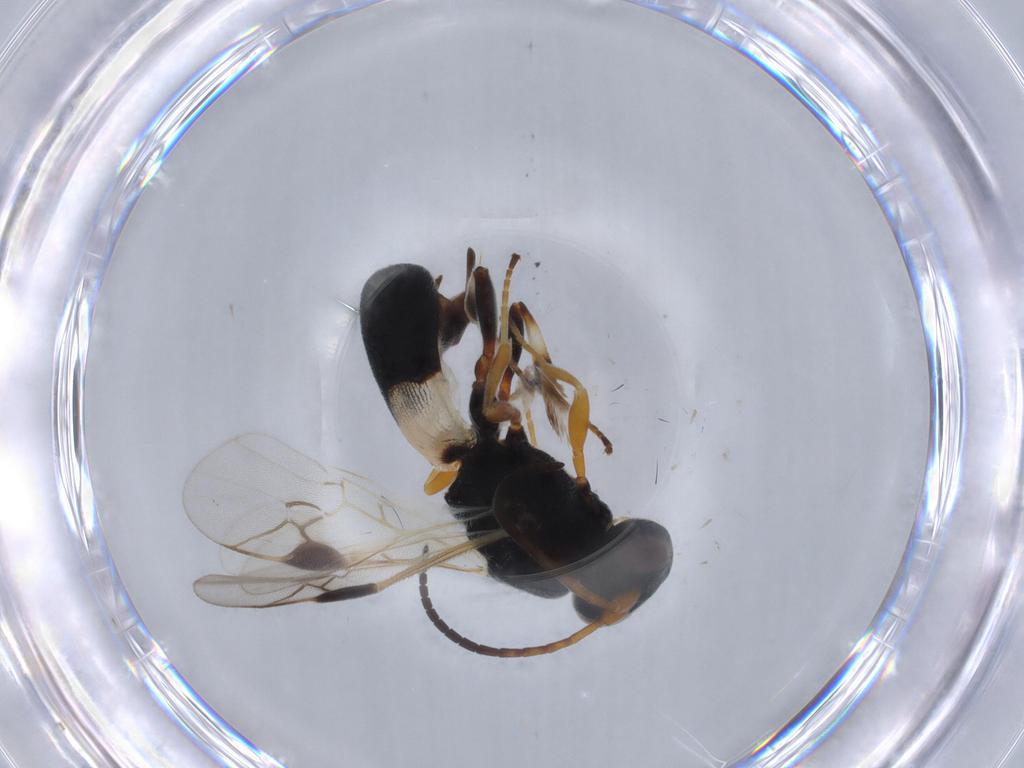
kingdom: Animalia
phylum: Arthropoda
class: Insecta
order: Hymenoptera
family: Braconidae
